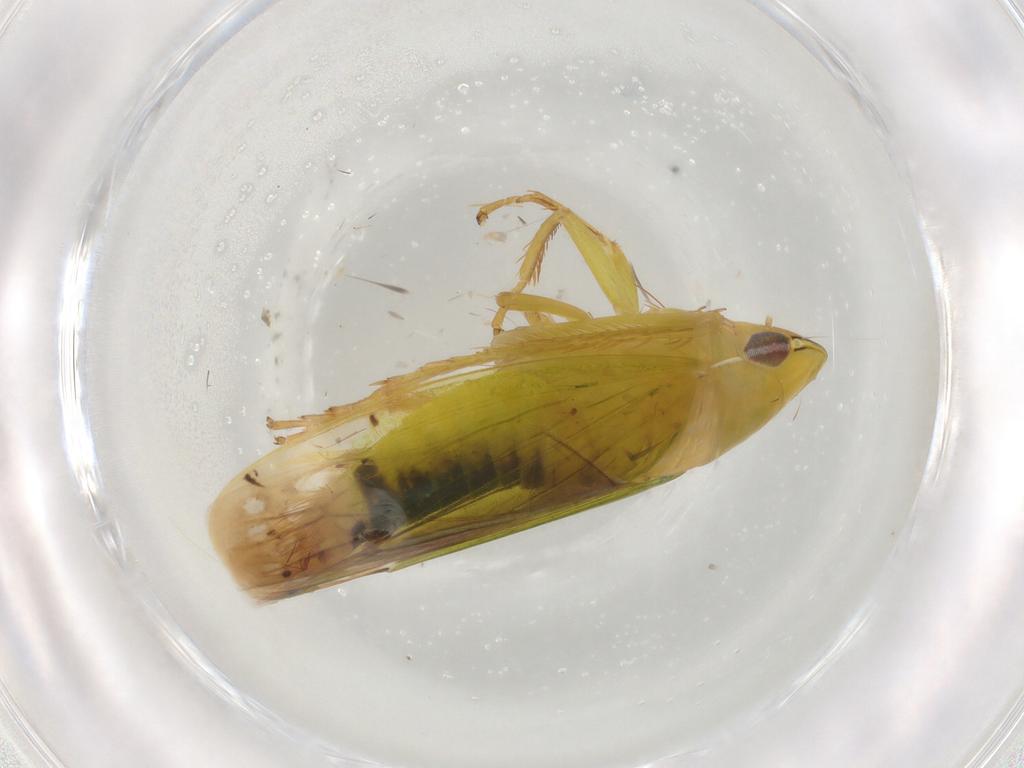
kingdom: Animalia
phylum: Arthropoda
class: Insecta
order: Hemiptera
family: Cicadellidae
